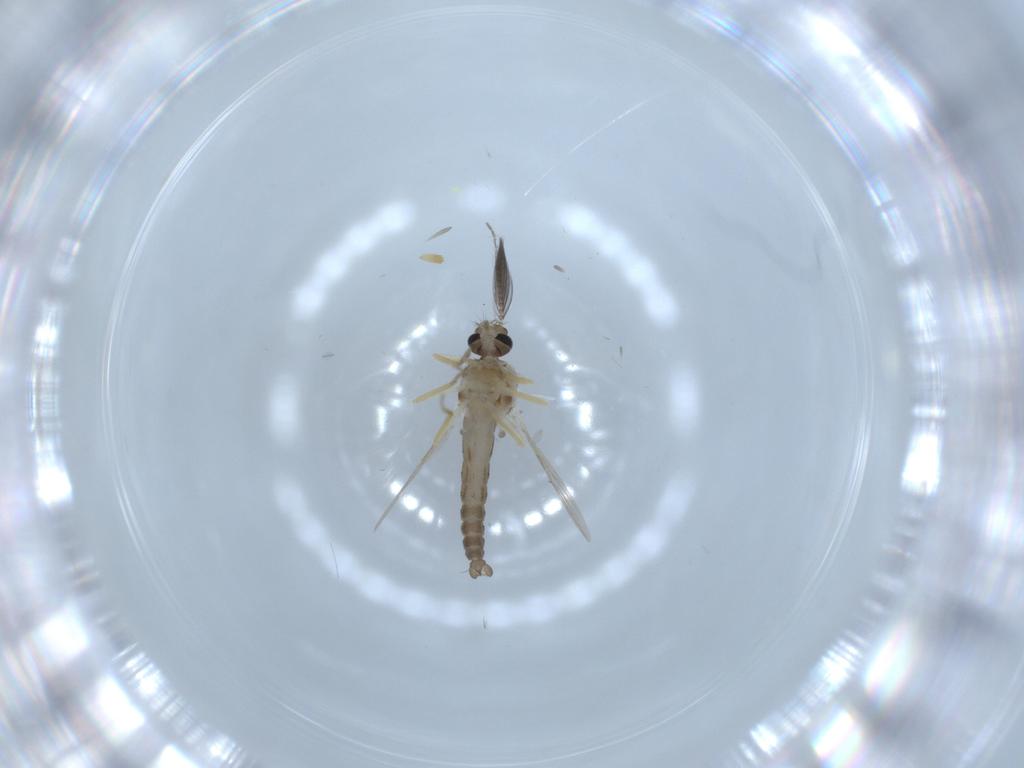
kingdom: Animalia
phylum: Arthropoda
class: Insecta
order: Diptera
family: Ceratopogonidae
